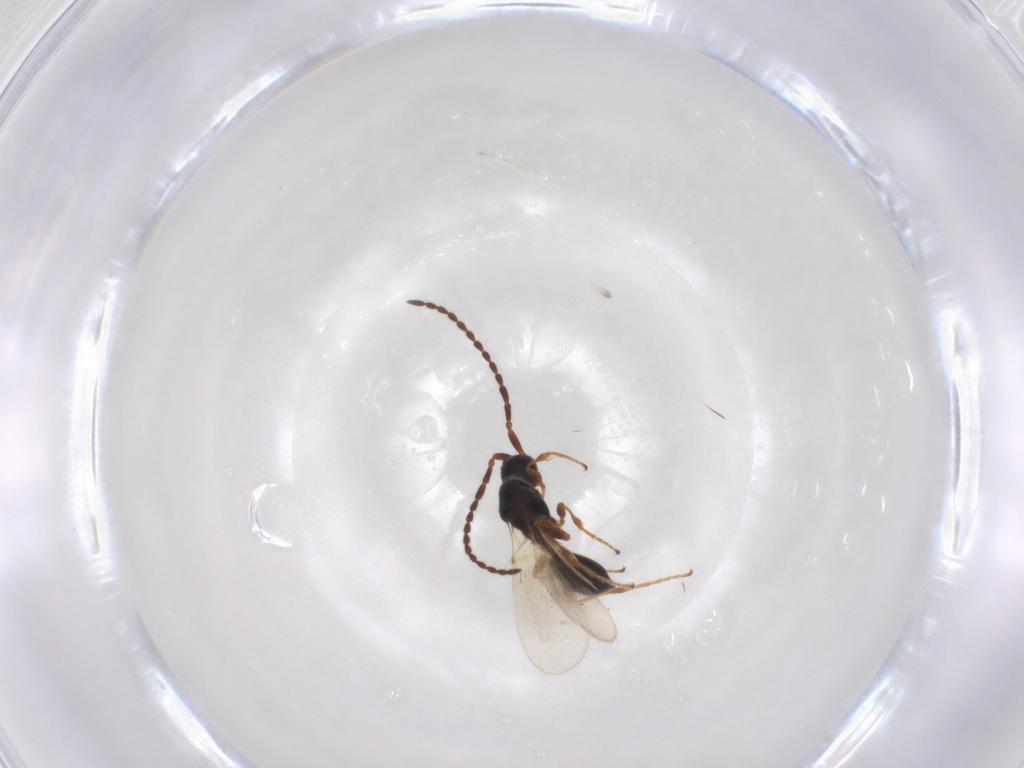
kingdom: Animalia
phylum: Arthropoda
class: Insecta
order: Hymenoptera
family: Diapriidae
